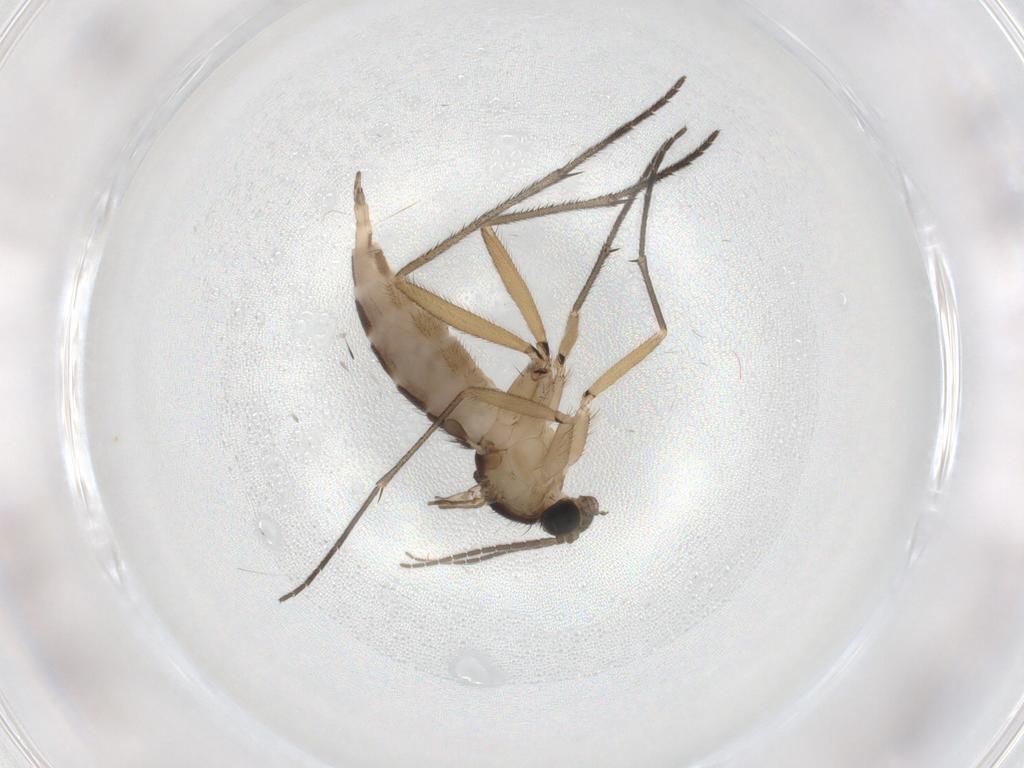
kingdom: Animalia
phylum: Arthropoda
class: Insecta
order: Diptera
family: Sciaridae
